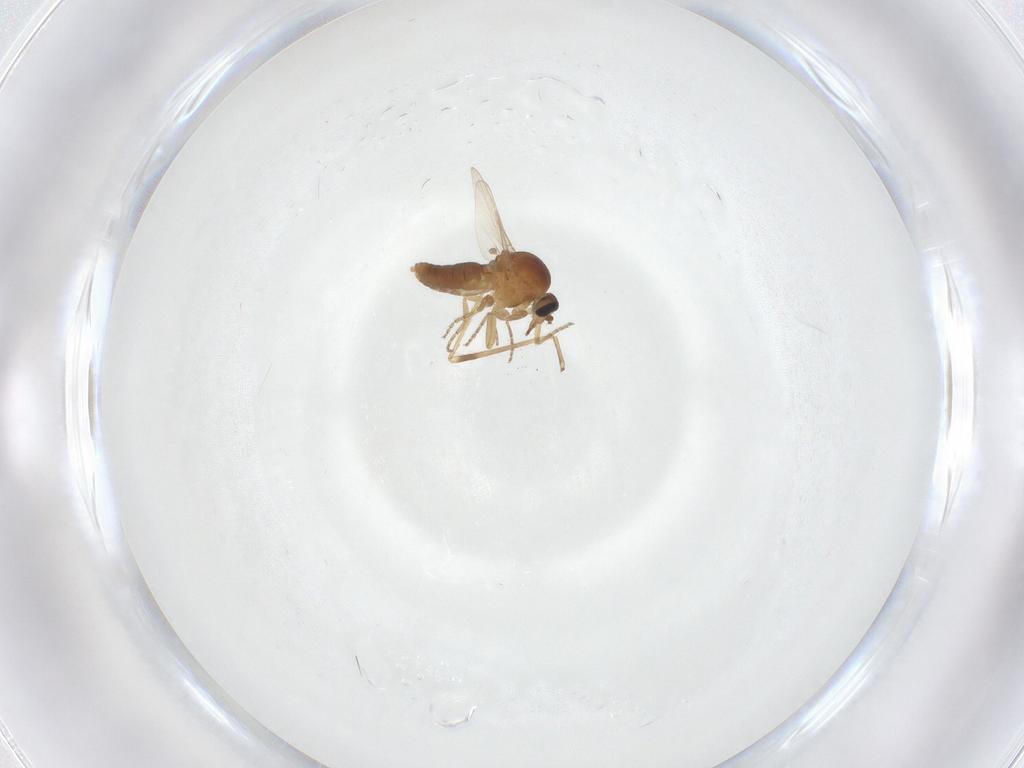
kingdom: Animalia
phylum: Arthropoda
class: Insecta
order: Diptera
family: Ceratopogonidae
